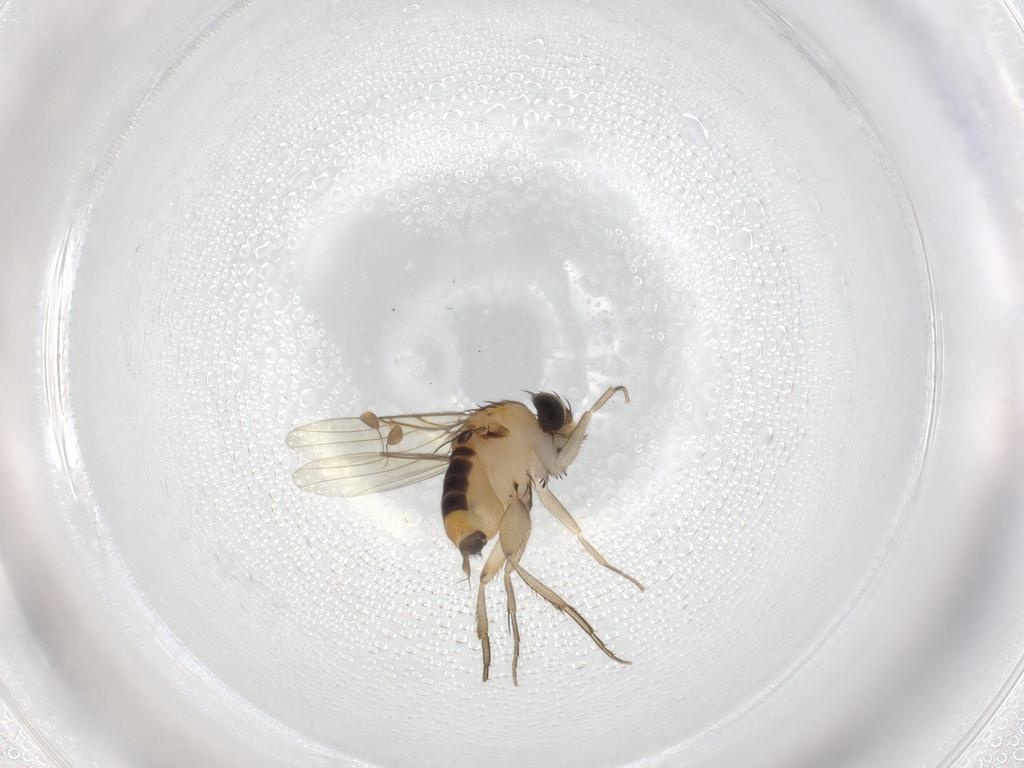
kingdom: Animalia
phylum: Arthropoda
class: Insecta
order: Diptera
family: Phoridae
